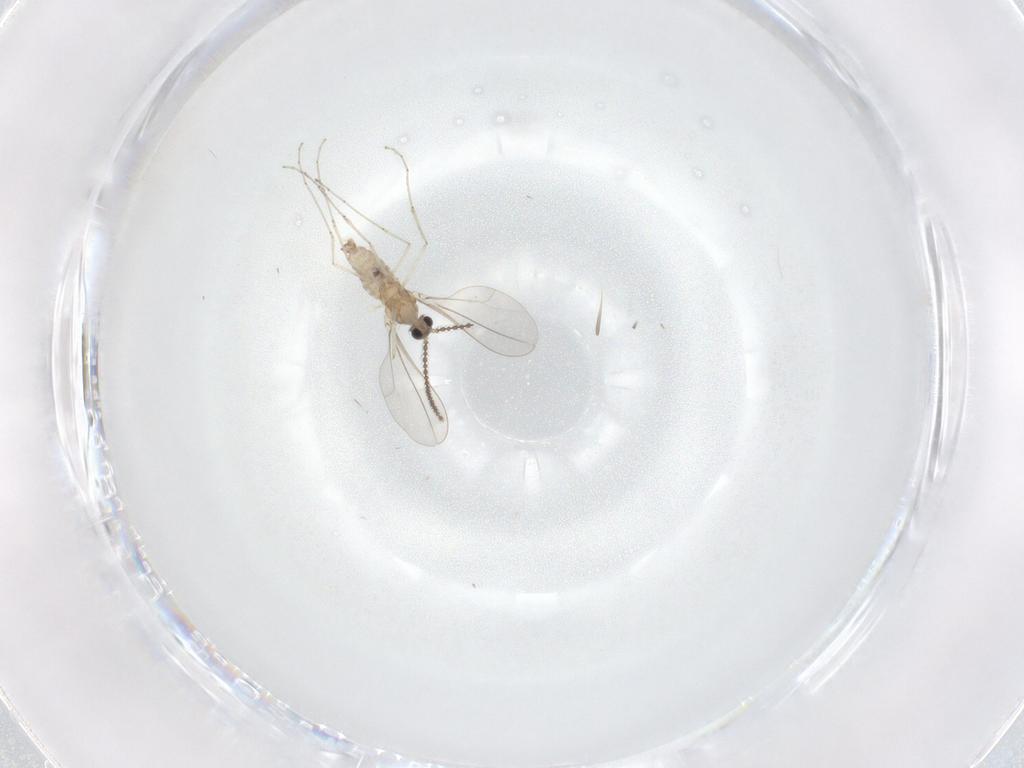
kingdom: Animalia
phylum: Arthropoda
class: Insecta
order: Diptera
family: Cecidomyiidae
